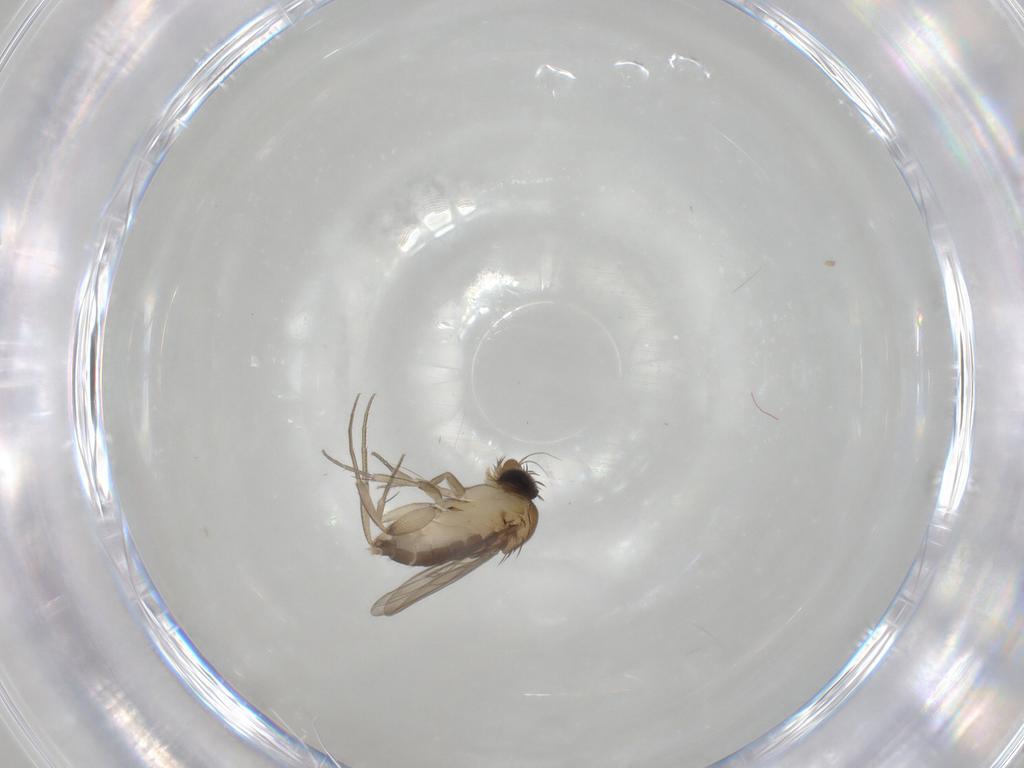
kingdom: Animalia
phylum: Arthropoda
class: Insecta
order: Diptera
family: Phoridae
